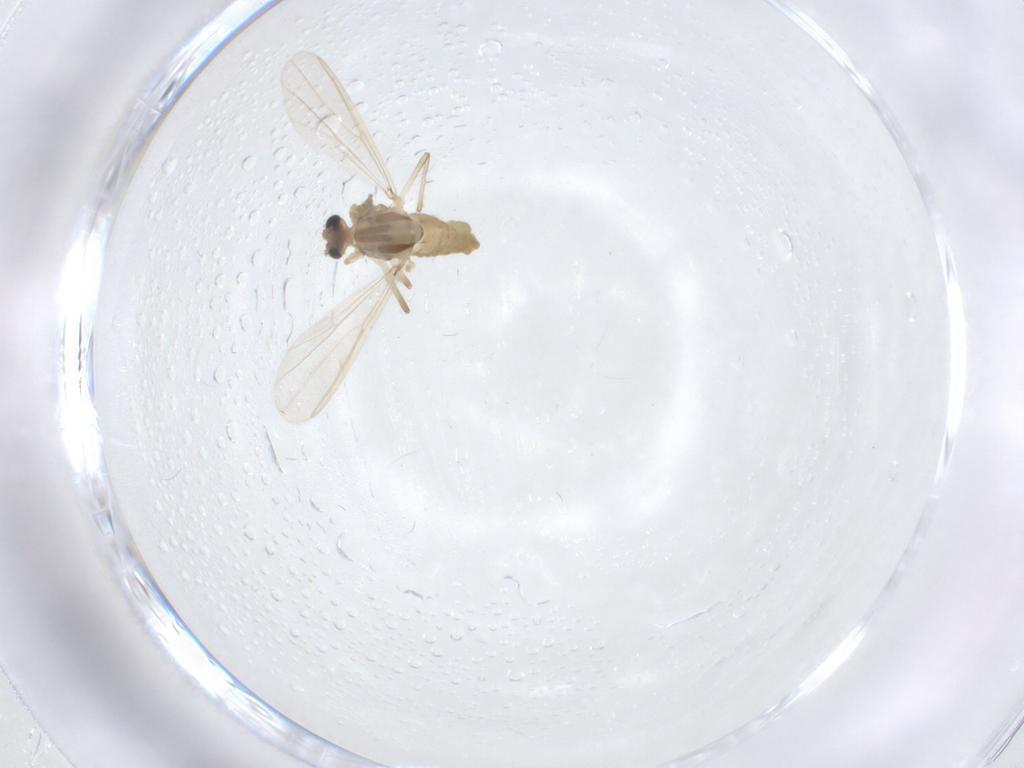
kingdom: Animalia
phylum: Arthropoda
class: Insecta
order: Diptera
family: Chironomidae
